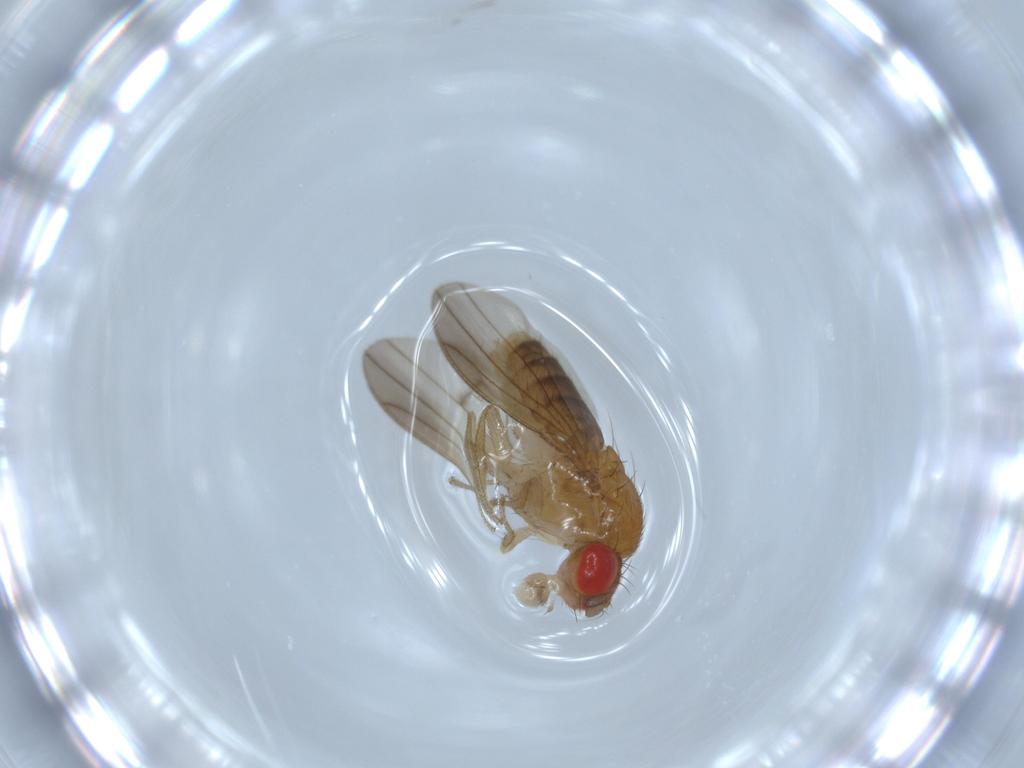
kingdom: Animalia
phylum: Arthropoda
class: Insecta
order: Diptera
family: Drosophilidae
